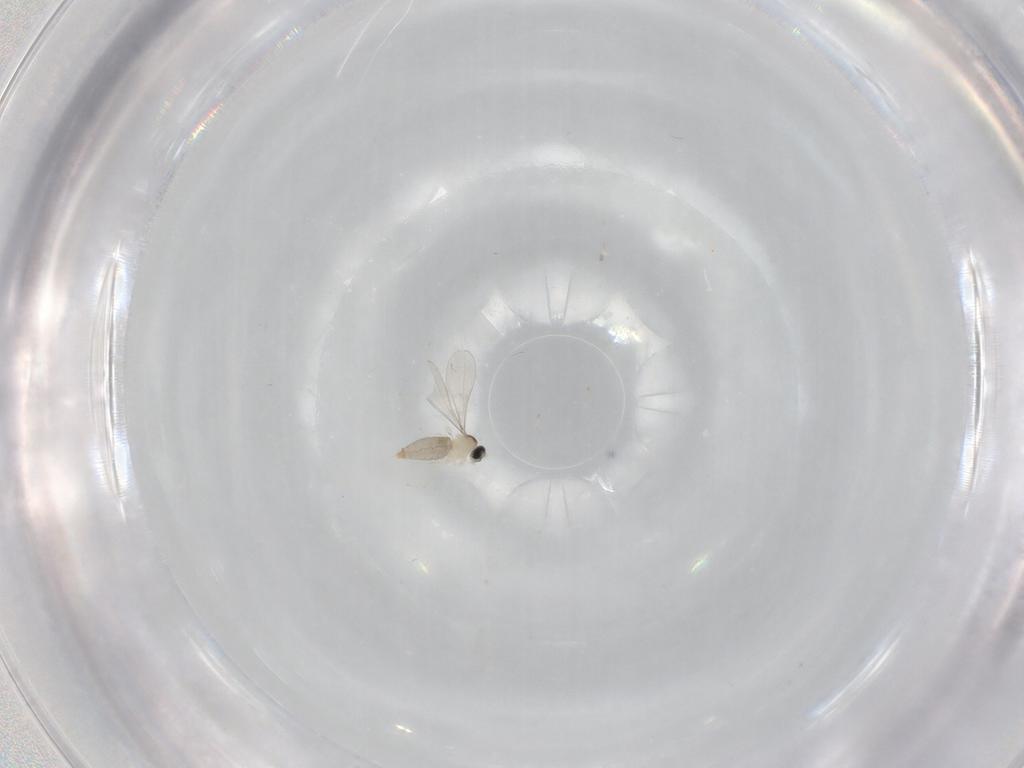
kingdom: Animalia
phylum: Arthropoda
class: Insecta
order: Diptera
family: Cecidomyiidae
